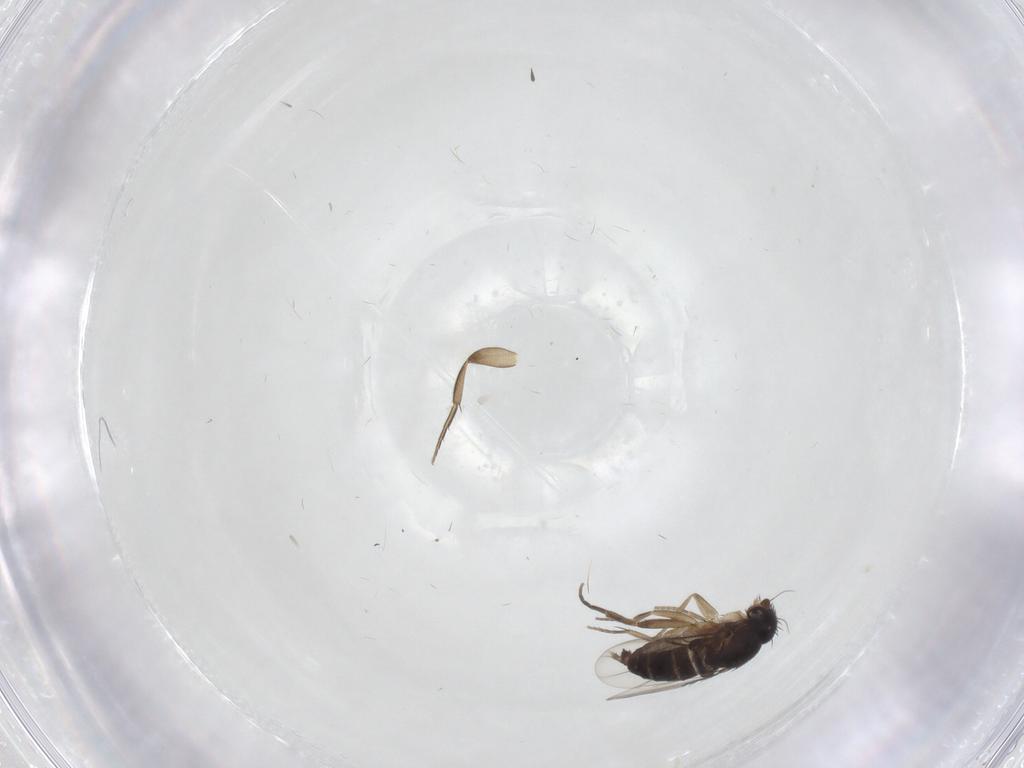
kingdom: Animalia
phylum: Arthropoda
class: Insecta
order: Diptera
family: Phoridae
